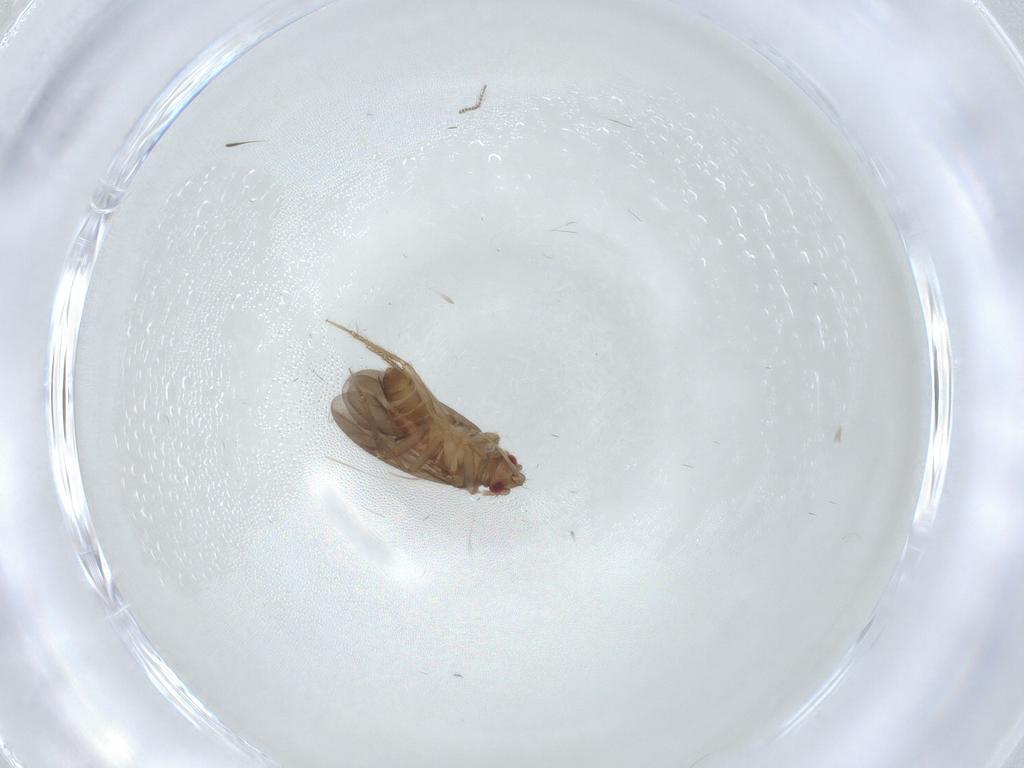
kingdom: Animalia
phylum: Arthropoda
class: Insecta
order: Hemiptera
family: Ceratocombidae
